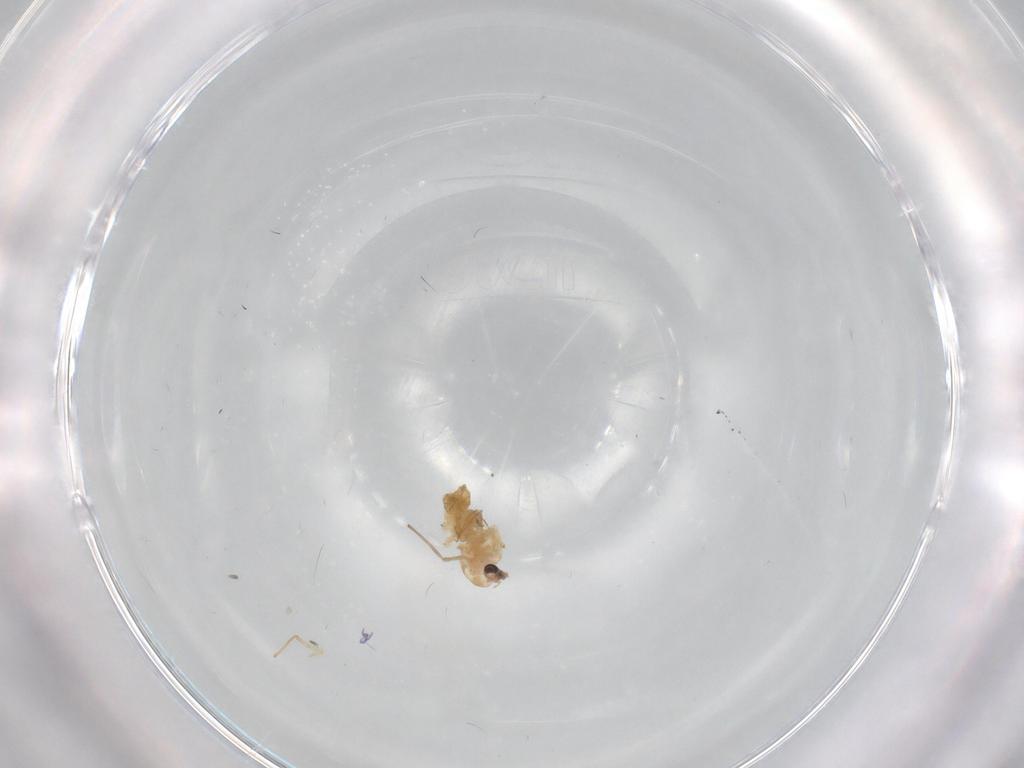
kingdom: Animalia
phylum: Arthropoda
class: Insecta
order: Diptera
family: Chironomidae
